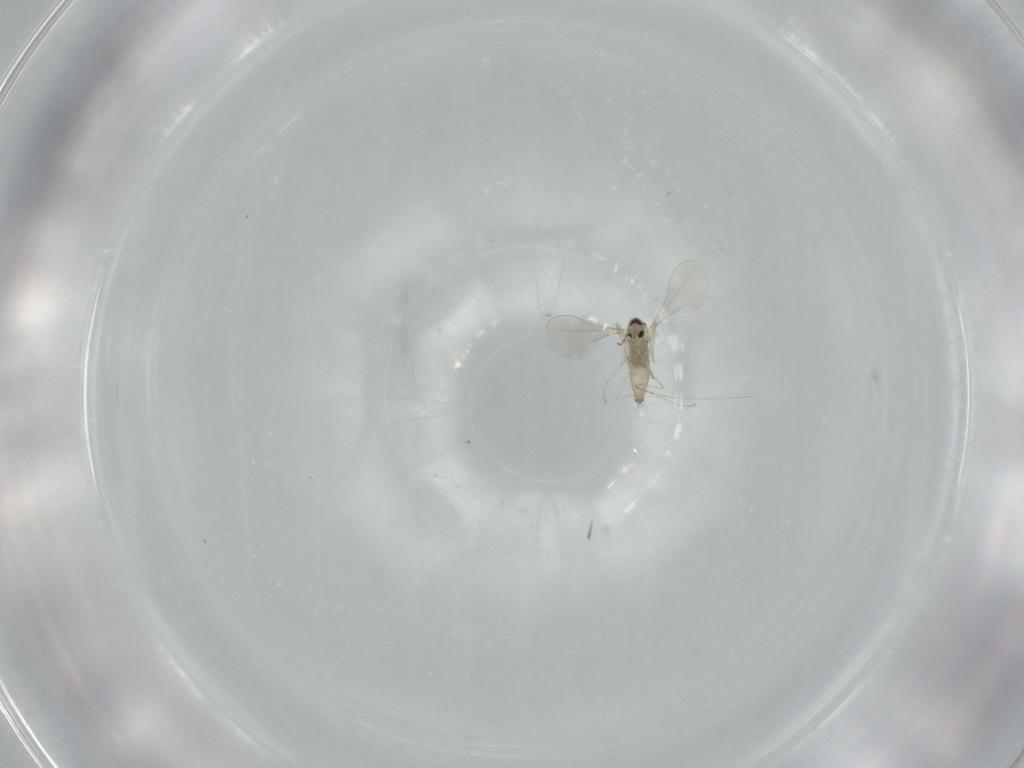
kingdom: Animalia
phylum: Arthropoda
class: Insecta
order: Diptera
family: Cecidomyiidae
